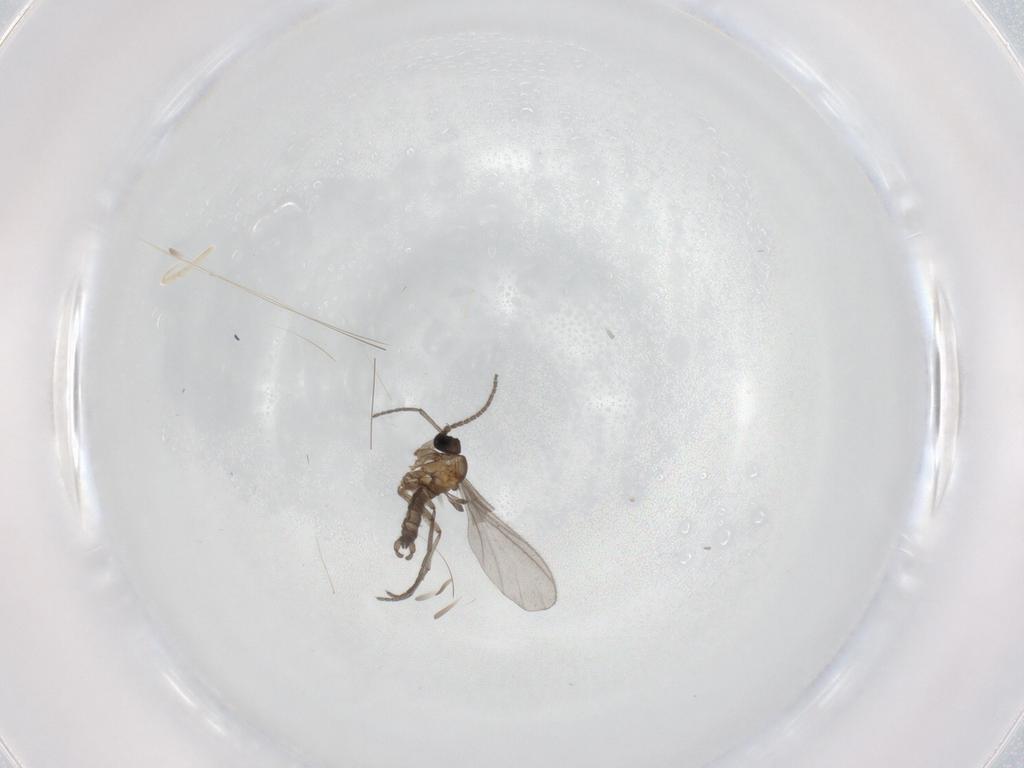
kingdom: Animalia
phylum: Arthropoda
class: Insecta
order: Diptera
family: Sciaridae
